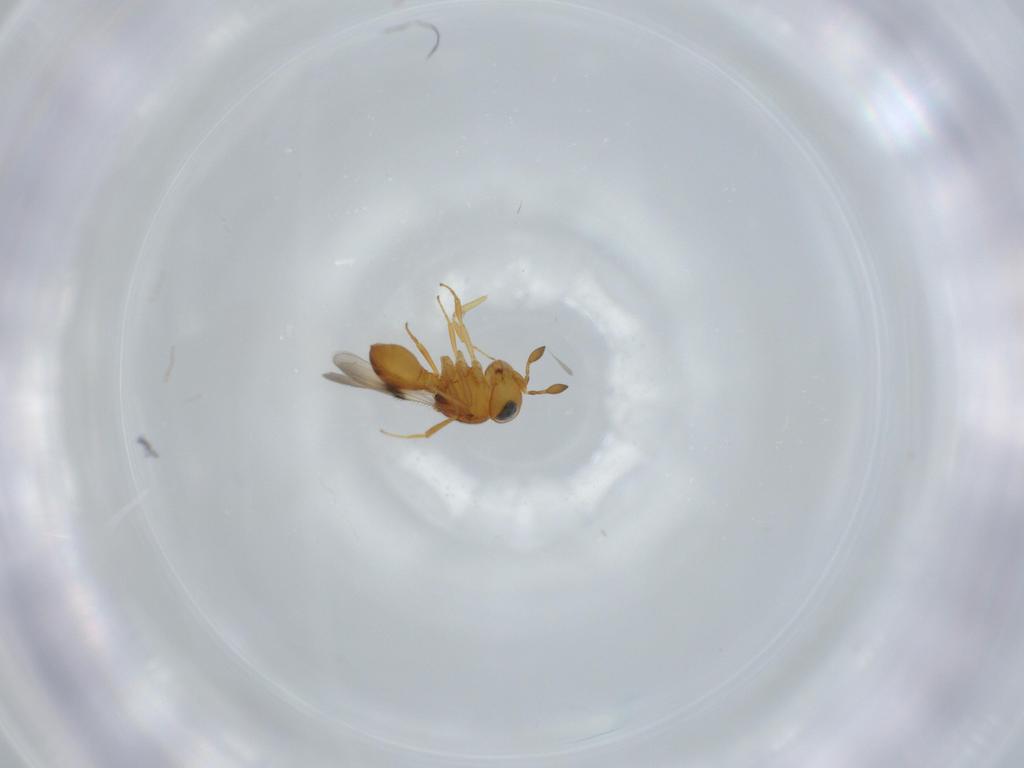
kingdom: Animalia
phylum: Arthropoda
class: Insecta
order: Hymenoptera
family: Scelionidae
